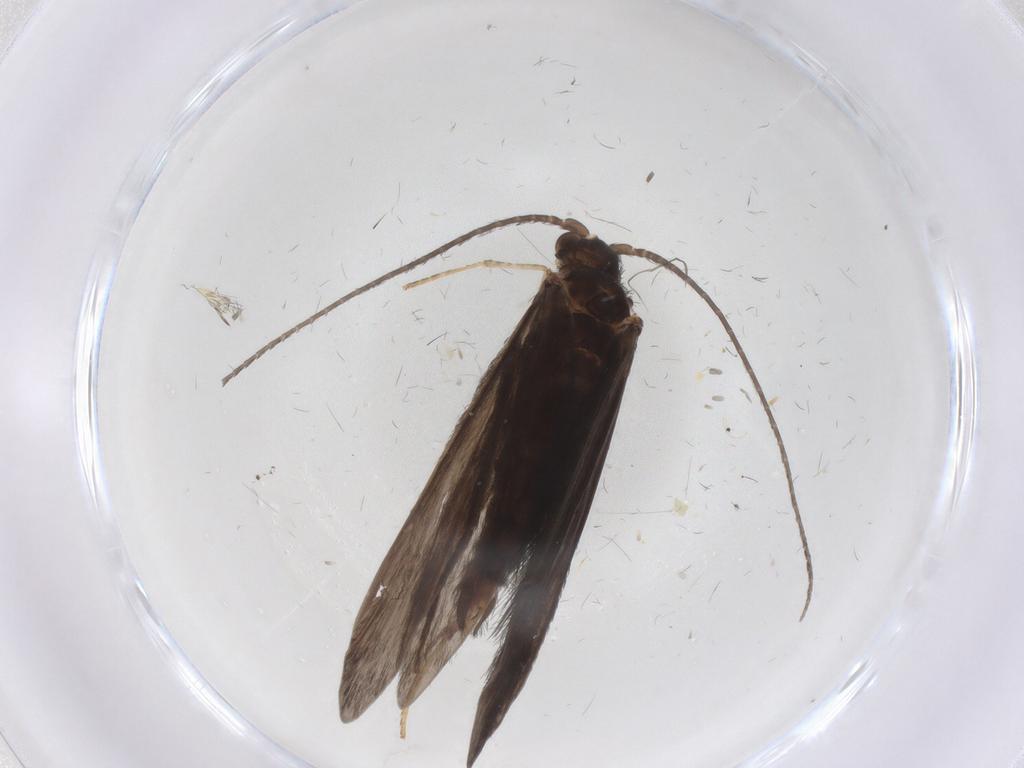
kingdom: Animalia
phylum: Arthropoda
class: Insecta
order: Trichoptera
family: Xiphocentronidae
